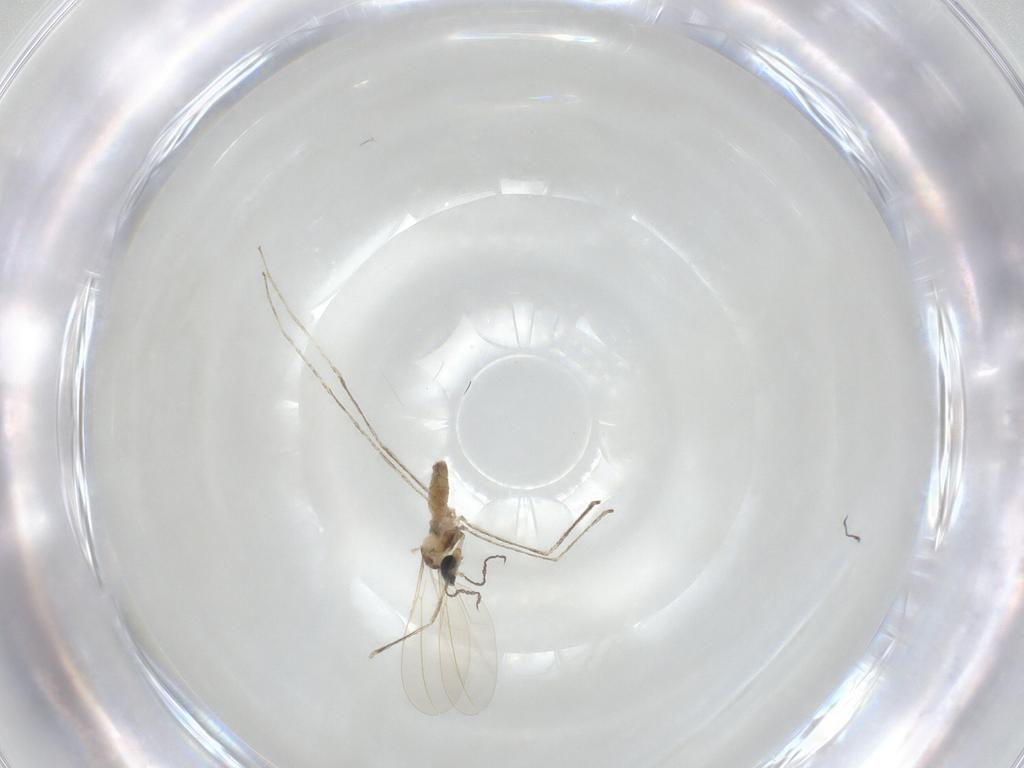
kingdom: Animalia
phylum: Arthropoda
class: Insecta
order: Diptera
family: Cecidomyiidae
